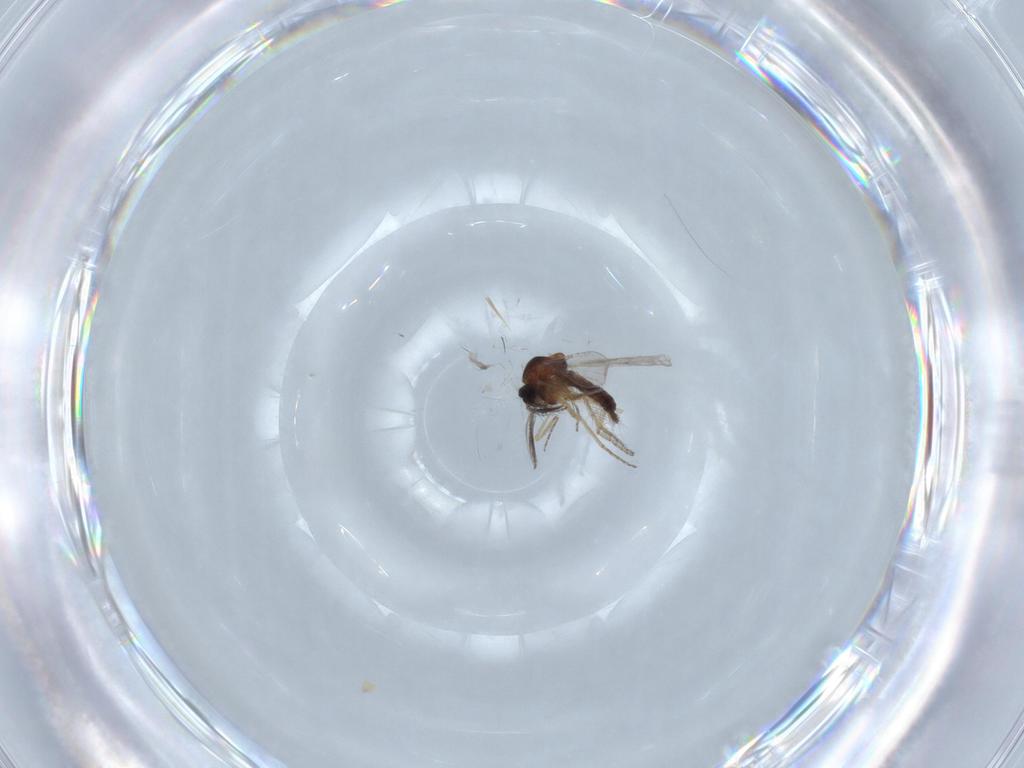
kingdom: Animalia
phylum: Arthropoda
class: Insecta
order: Diptera
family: Ceratopogonidae
